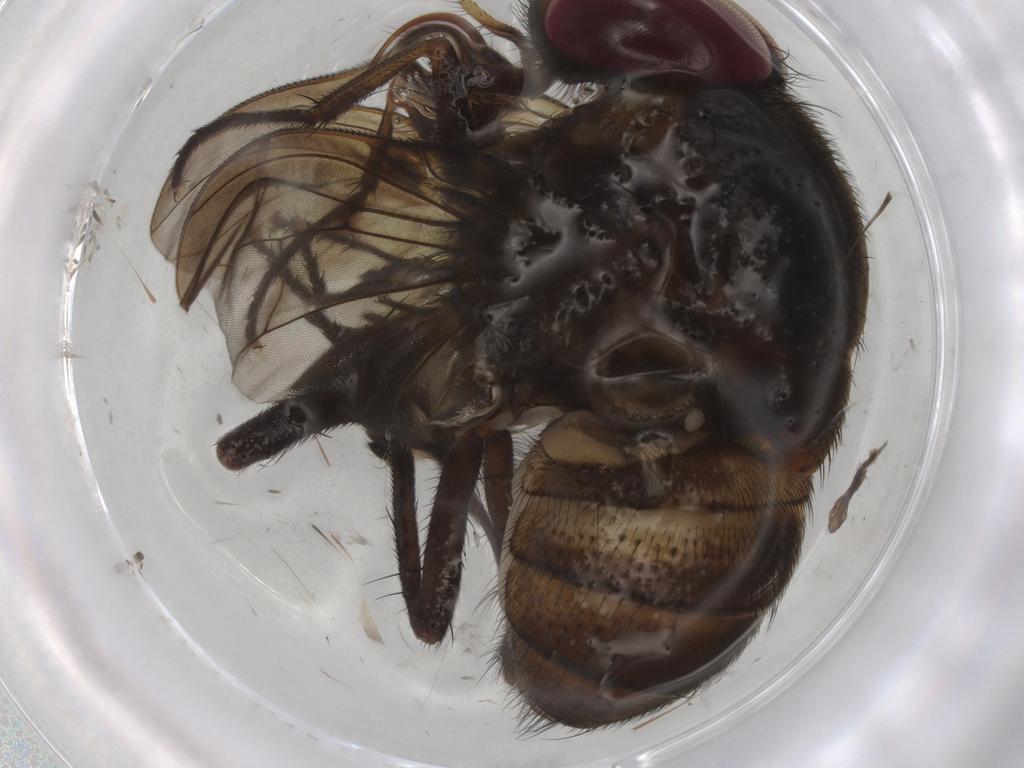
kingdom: Animalia
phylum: Arthropoda
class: Insecta
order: Diptera
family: Muscidae
